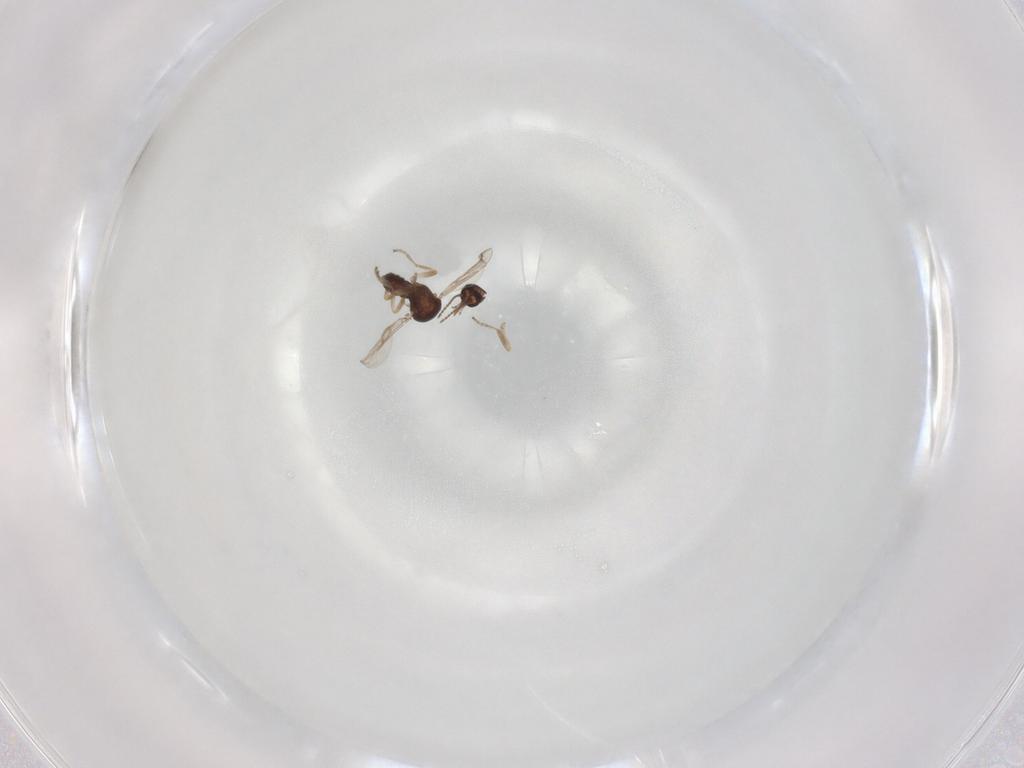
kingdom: Animalia
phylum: Arthropoda
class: Insecta
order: Diptera
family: Ceratopogonidae
